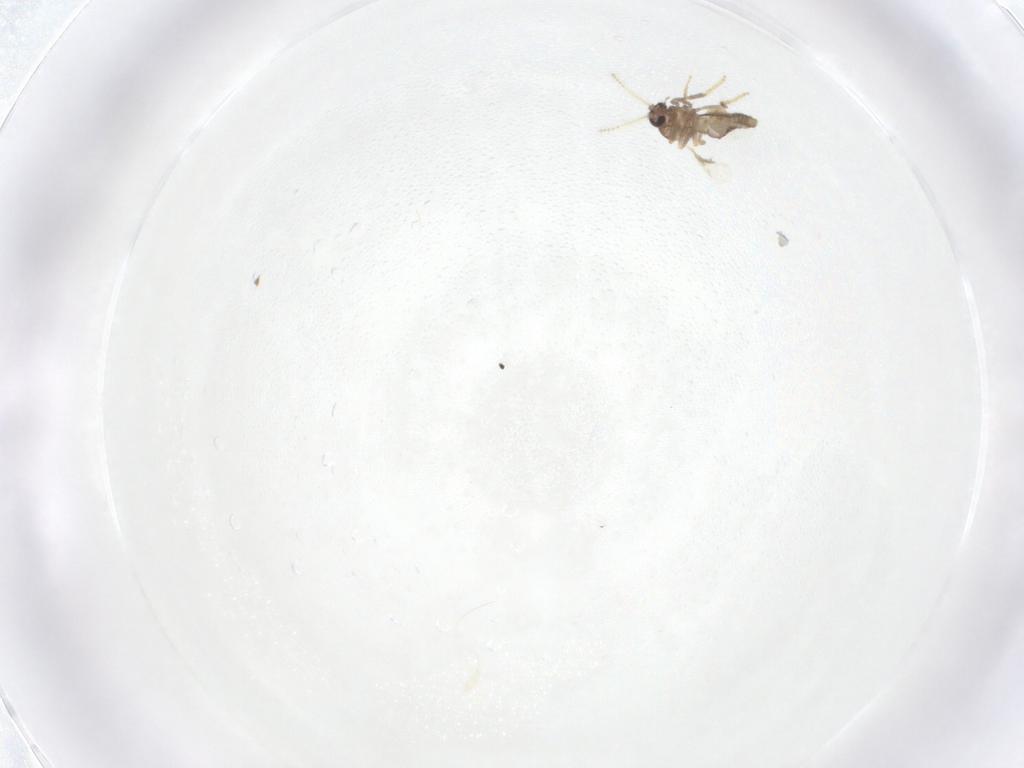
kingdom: Animalia
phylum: Arthropoda
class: Insecta
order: Diptera
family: Ceratopogonidae
